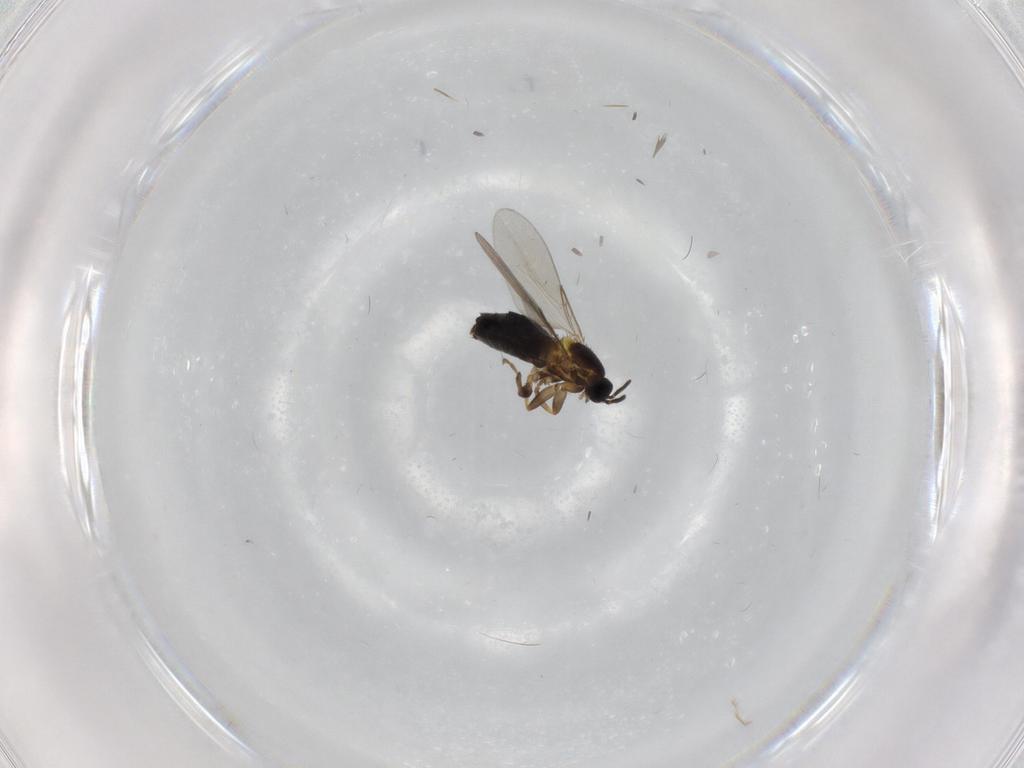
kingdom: Animalia
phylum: Arthropoda
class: Insecta
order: Diptera
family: Scatopsidae
